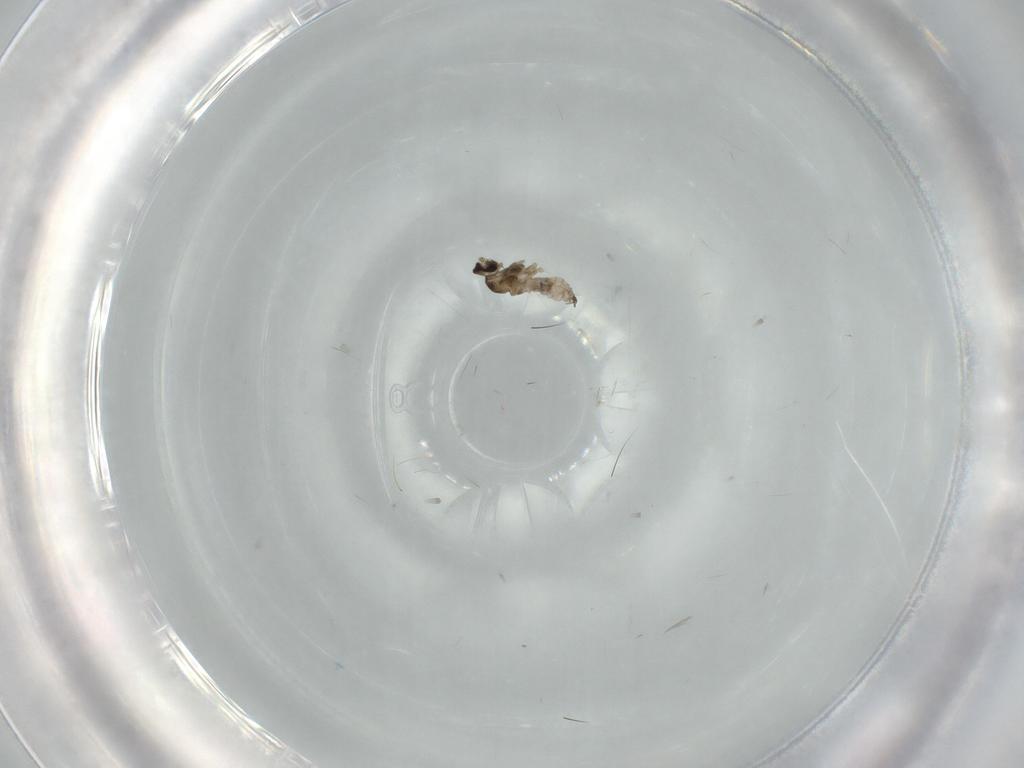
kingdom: Animalia
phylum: Arthropoda
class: Insecta
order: Diptera
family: Cecidomyiidae
